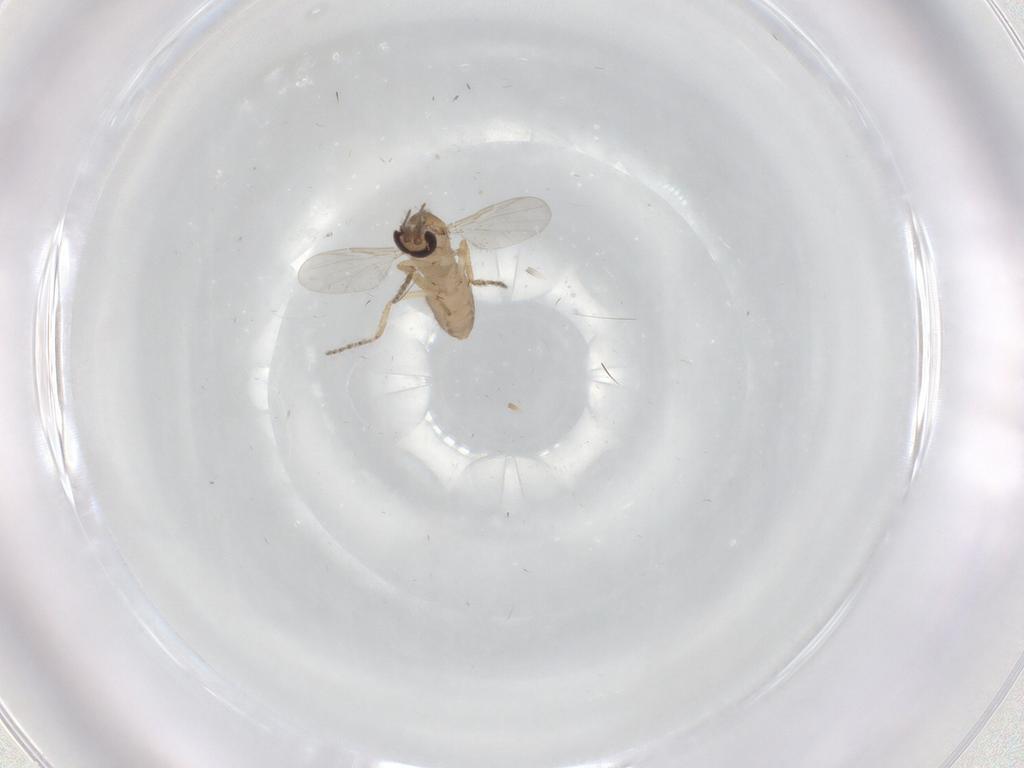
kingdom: Animalia
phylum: Arthropoda
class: Insecta
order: Diptera
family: Ceratopogonidae
